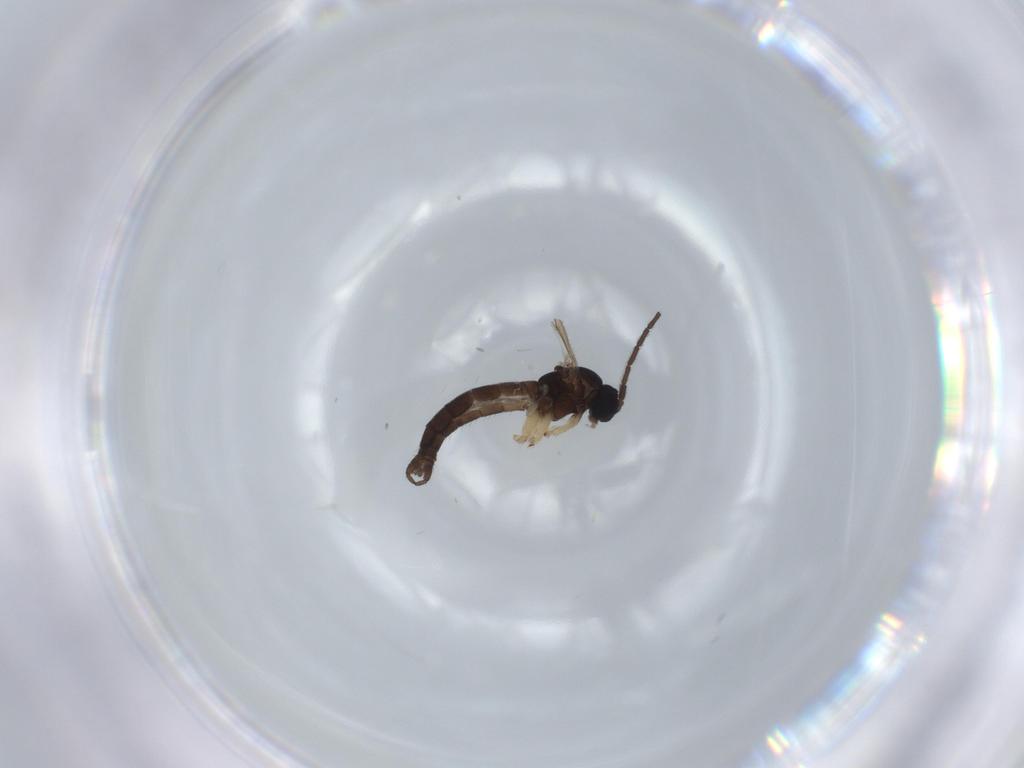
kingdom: Animalia
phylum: Arthropoda
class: Insecta
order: Diptera
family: Sciaridae
